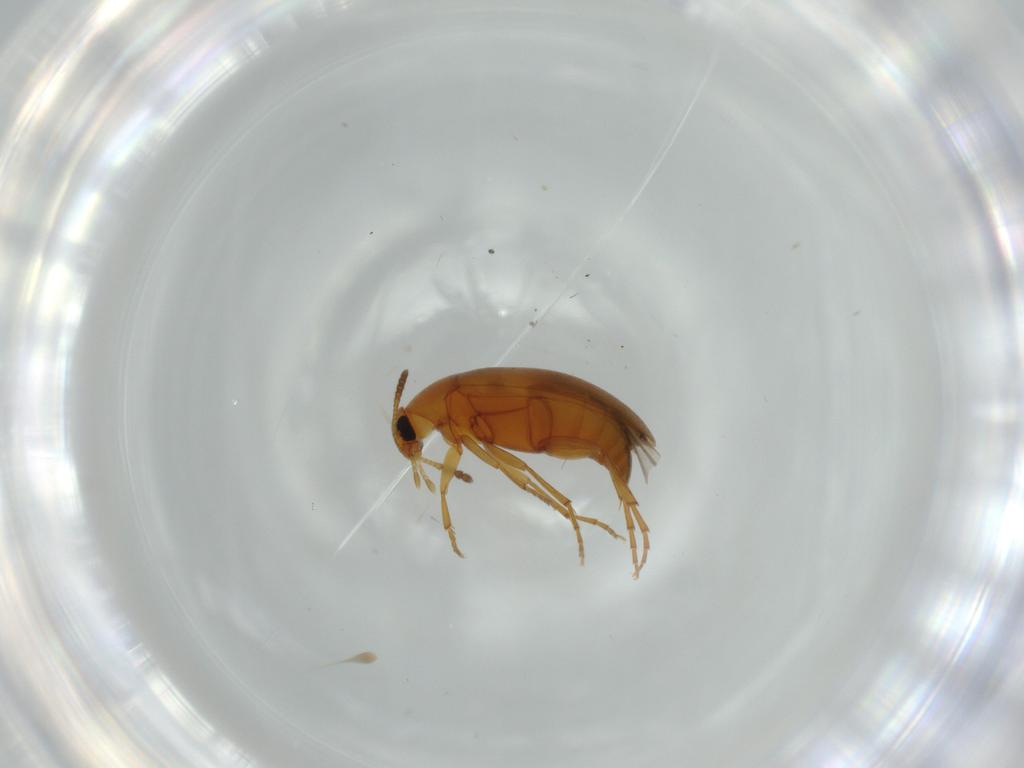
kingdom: Animalia
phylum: Arthropoda
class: Insecta
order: Coleoptera
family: Scraptiidae
